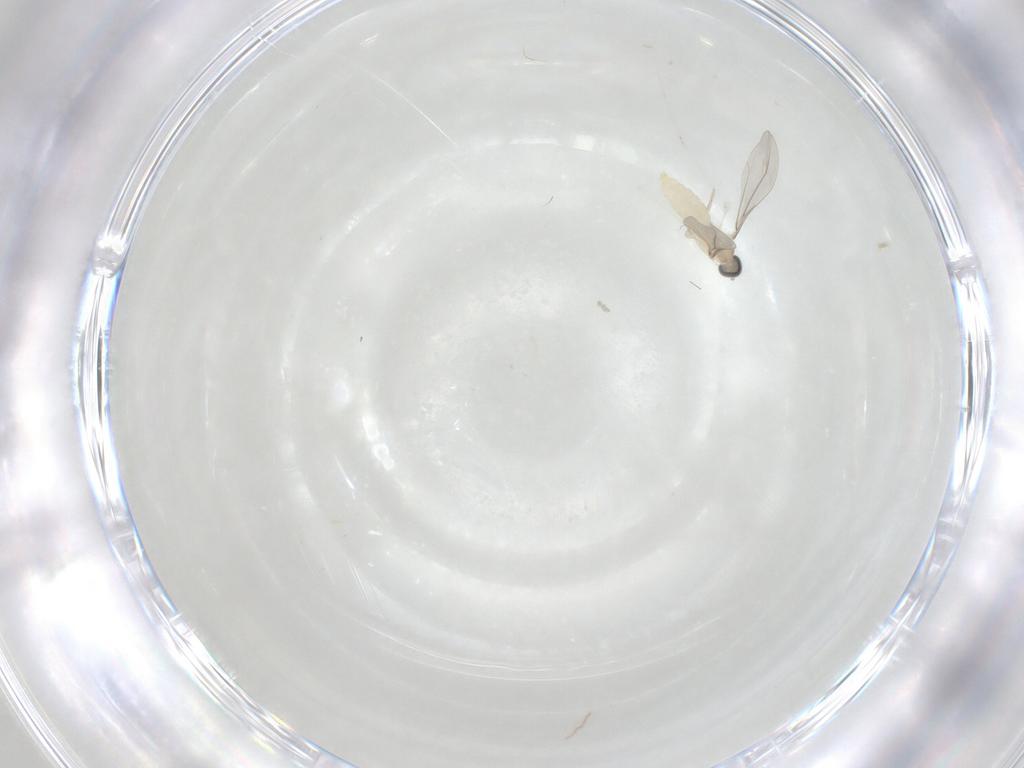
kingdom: Animalia
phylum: Arthropoda
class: Insecta
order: Diptera
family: Cecidomyiidae
